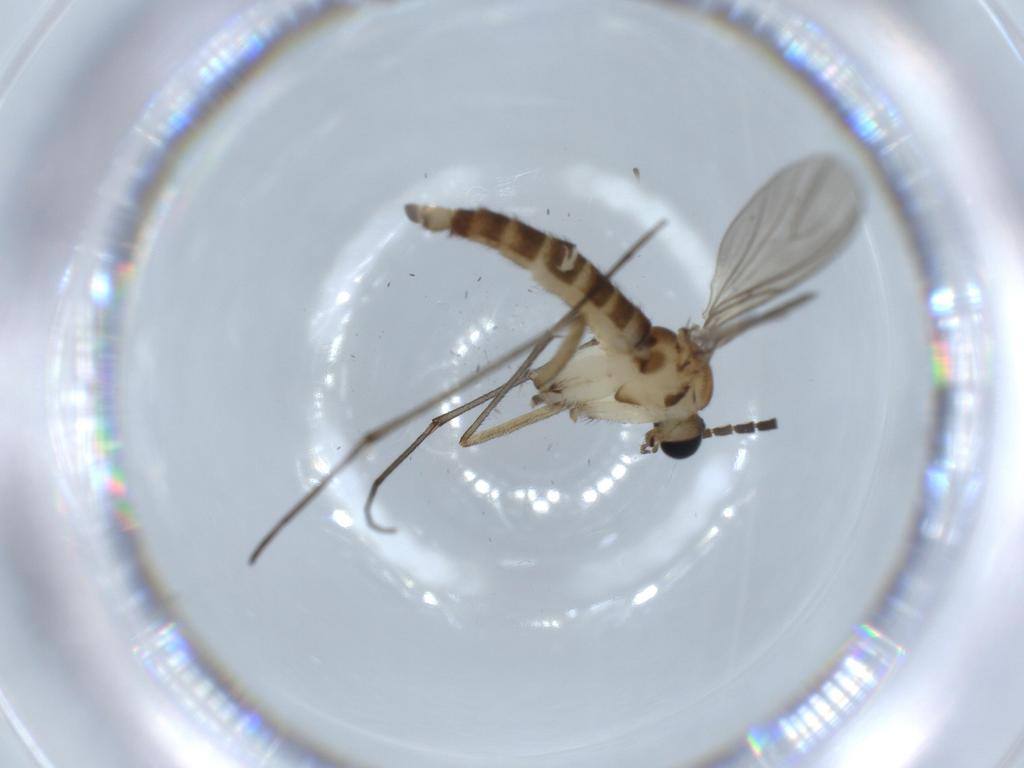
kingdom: Animalia
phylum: Arthropoda
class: Insecta
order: Diptera
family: Sciaridae
